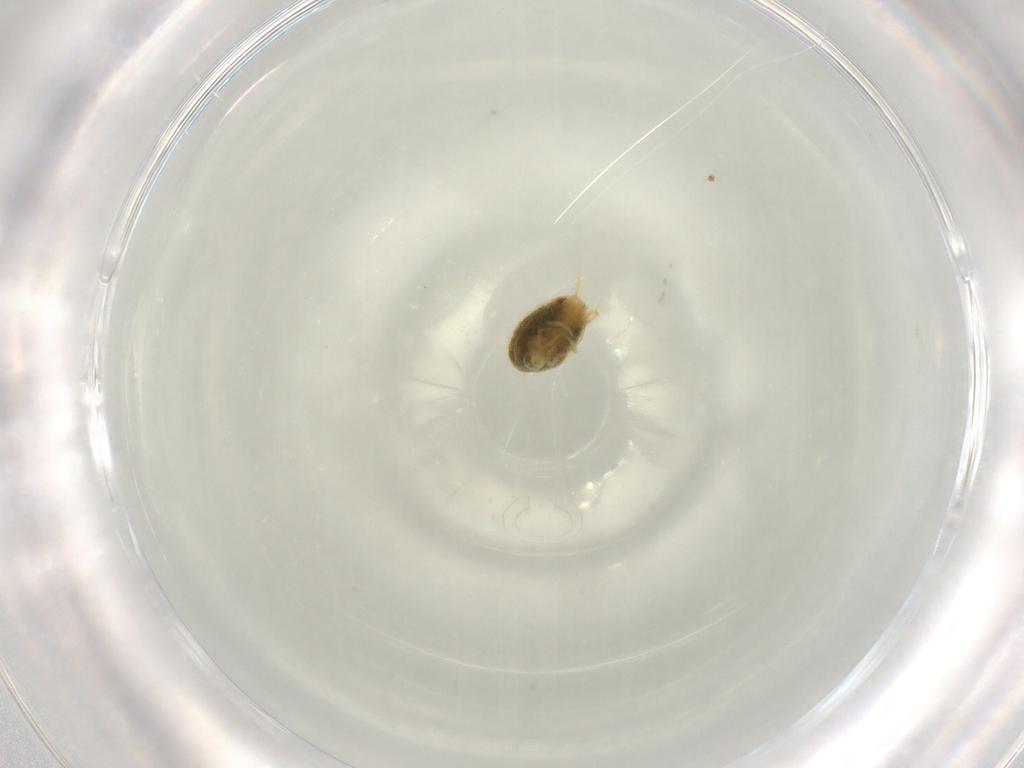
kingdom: Animalia
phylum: Arthropoda
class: Arachnida
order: Trombidiformes
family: Tetranychidae
